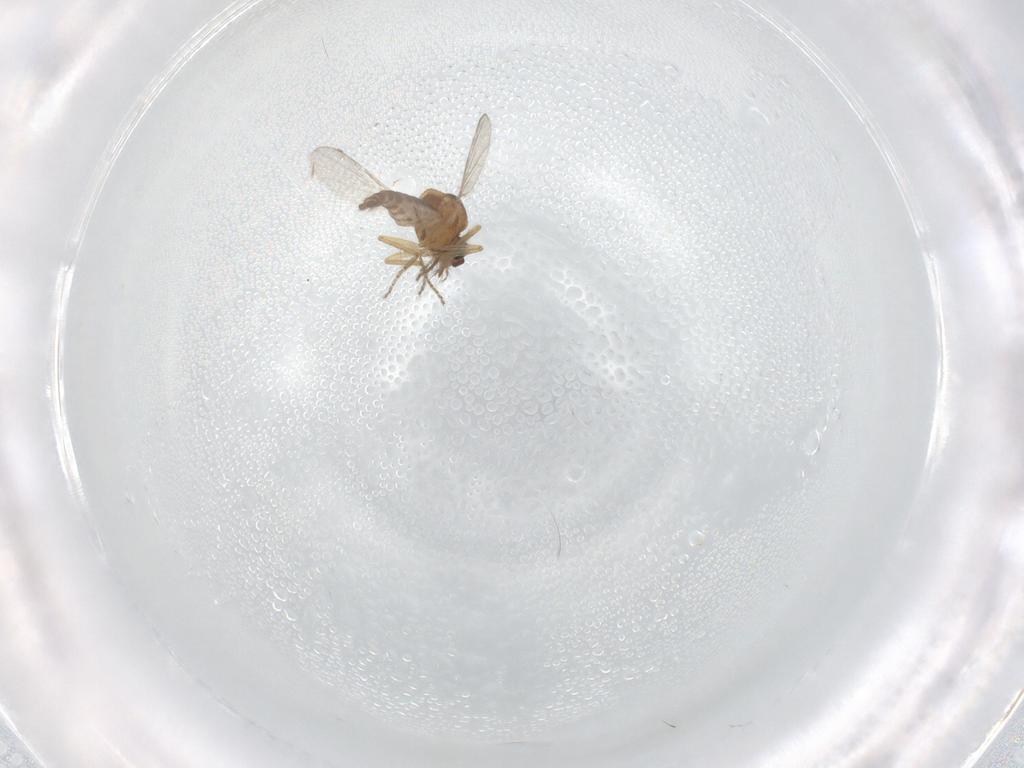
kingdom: Animalia
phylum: Arthropoda
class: Insecta
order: Diptera
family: Ceratopogonidae
